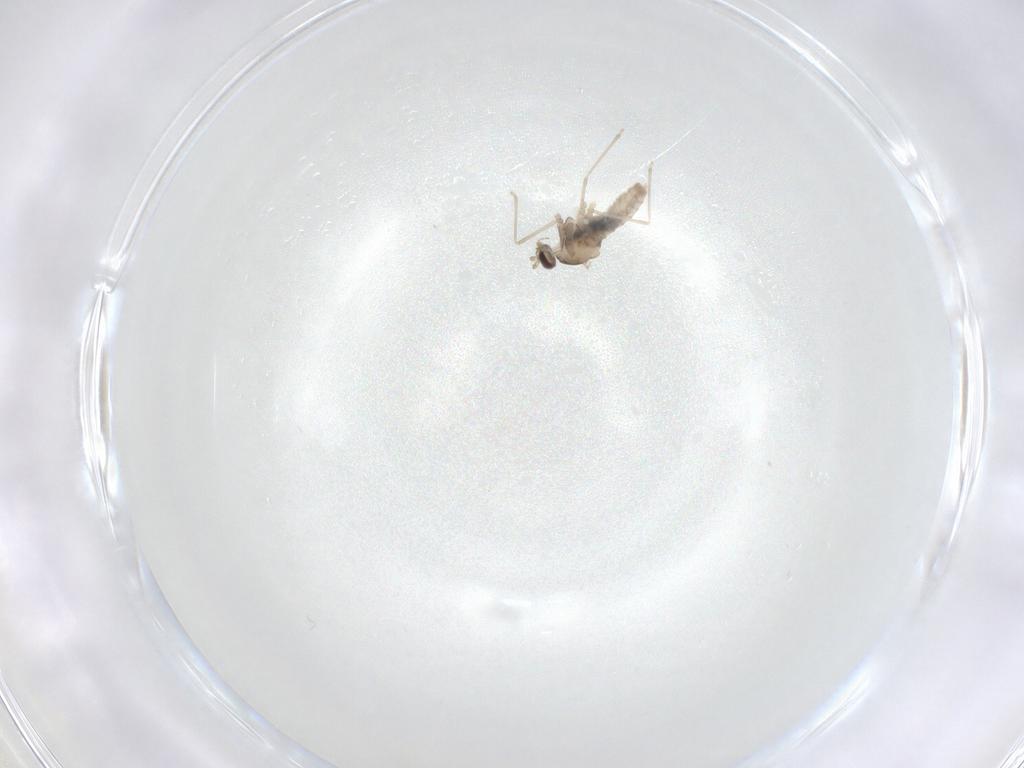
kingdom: Animalia
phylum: Arthropoda
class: Insecta
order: Diptera
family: Cecidomyiidae
